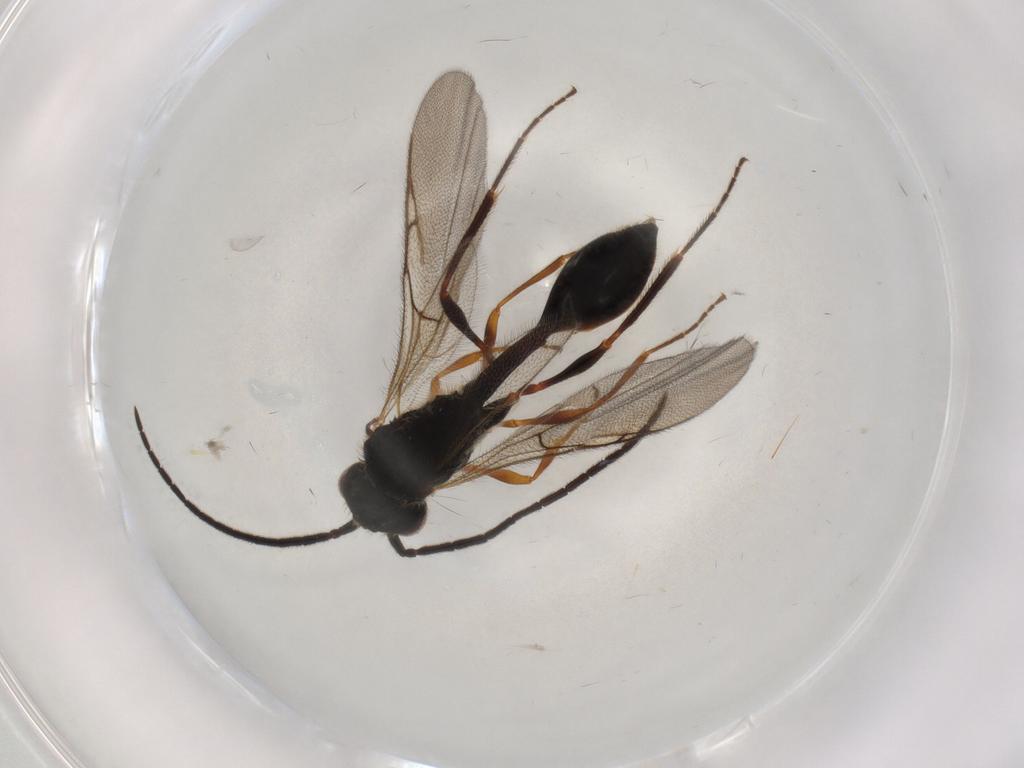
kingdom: Animalia
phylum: Arthropoda
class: Insecta
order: Hymenoptera
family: Diapriidae
